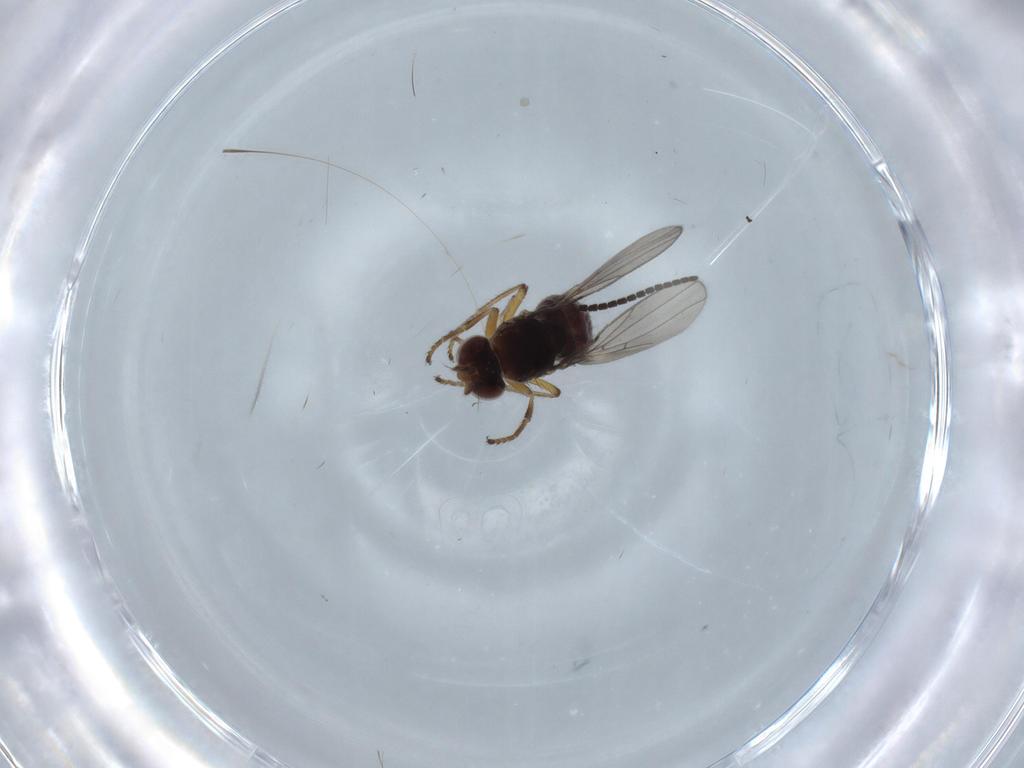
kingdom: Animalia
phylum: Arthropoda
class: Insecta
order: Diptera
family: Ephydridae
